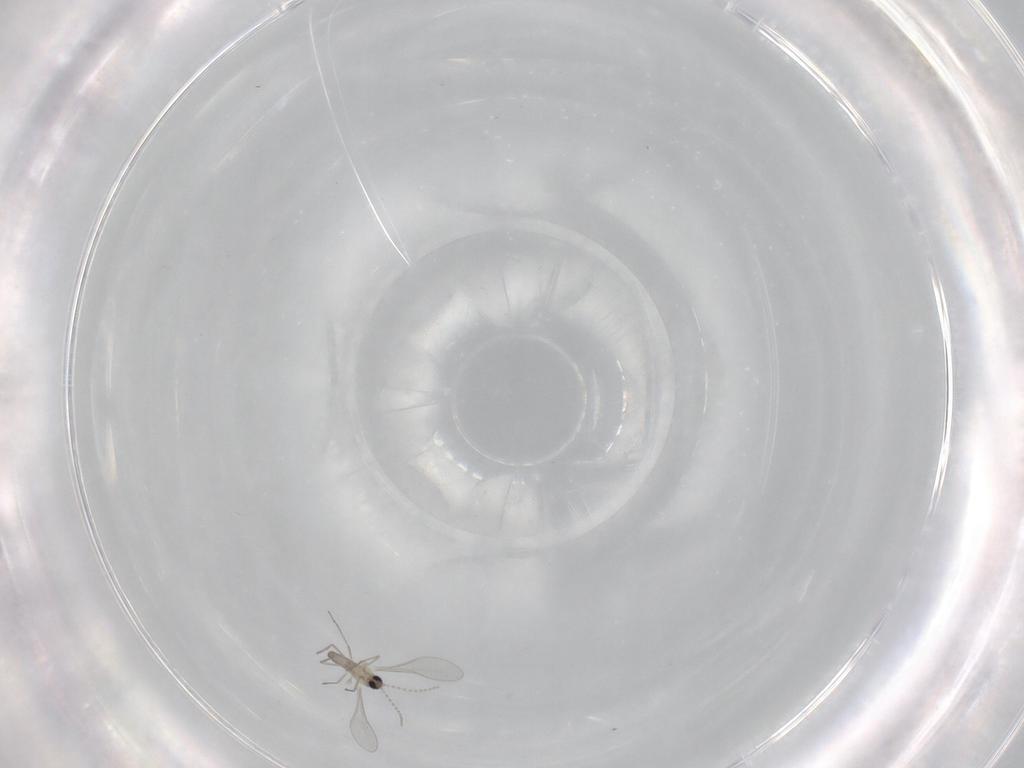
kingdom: Animalia
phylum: Arthropoda
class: Insecta
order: Diptera
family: Cecidomyiidae
